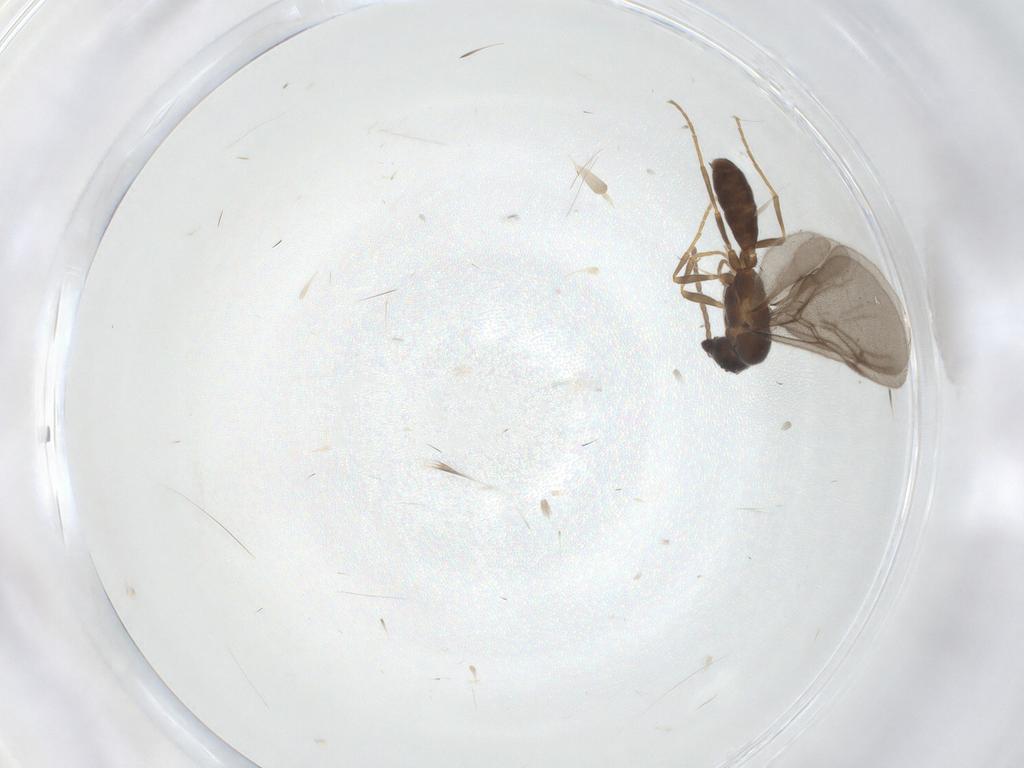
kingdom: Animalia
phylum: Arthropoda
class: Insecta
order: Hymenoptera
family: Formicidae
